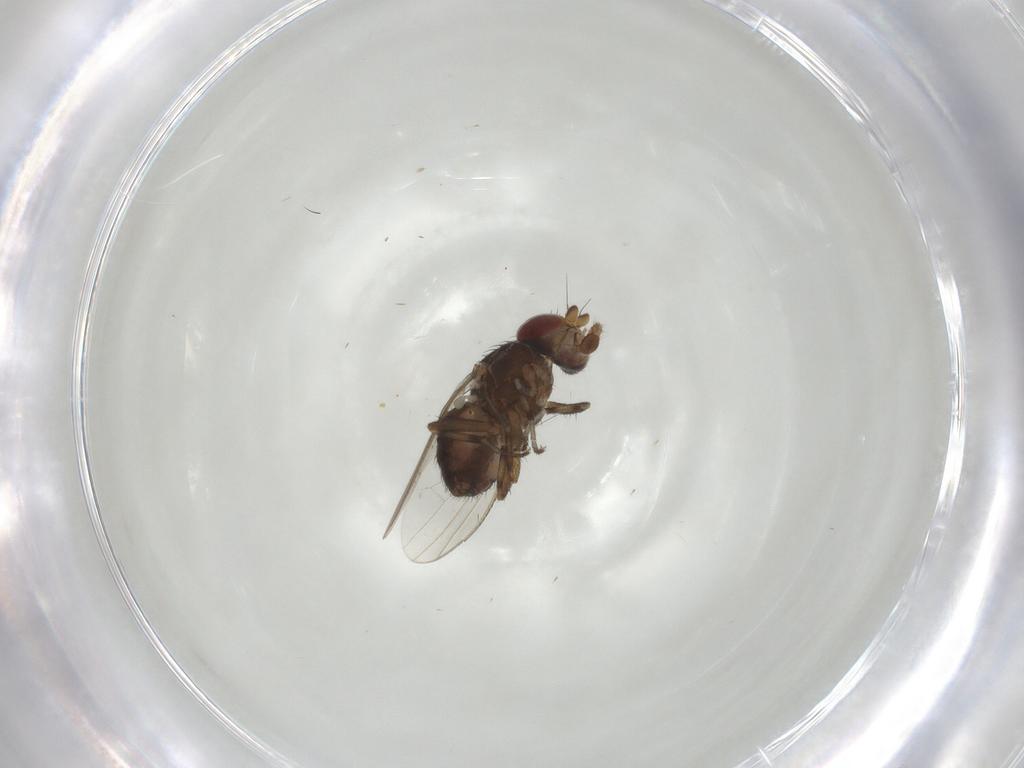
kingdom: Animalia
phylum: Arthropoda
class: Insecta
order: Diptera
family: Heleomyzidae
